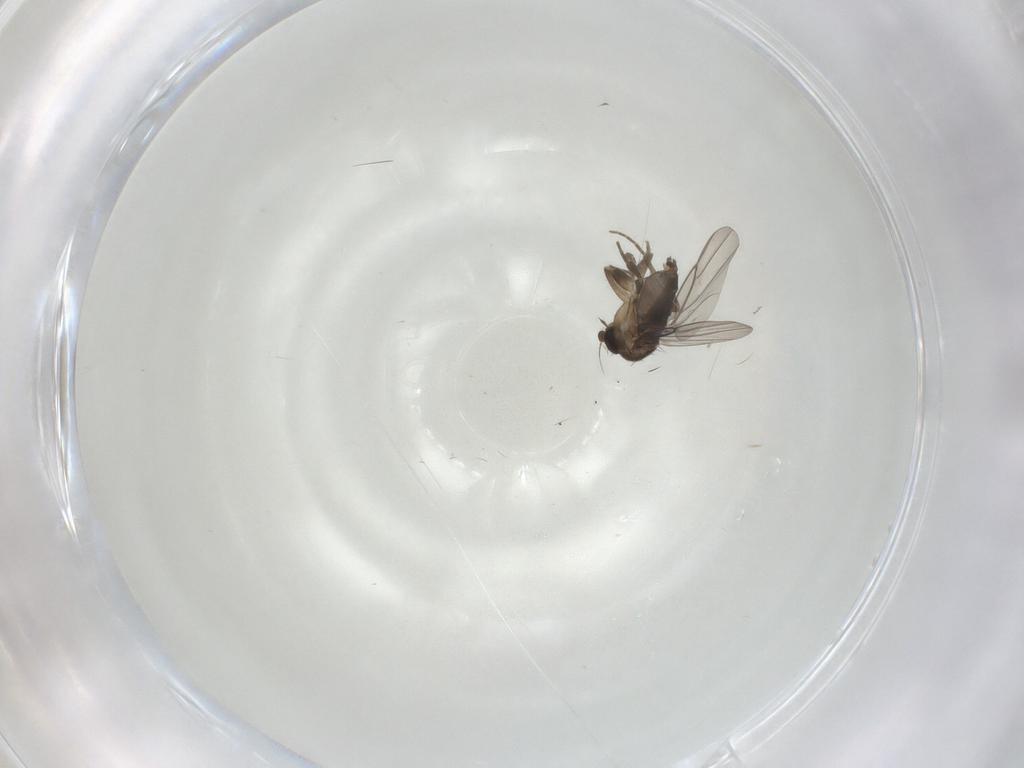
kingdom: Animalia
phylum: Arthropoda
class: Insecta
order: Diptera
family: Phoridae
